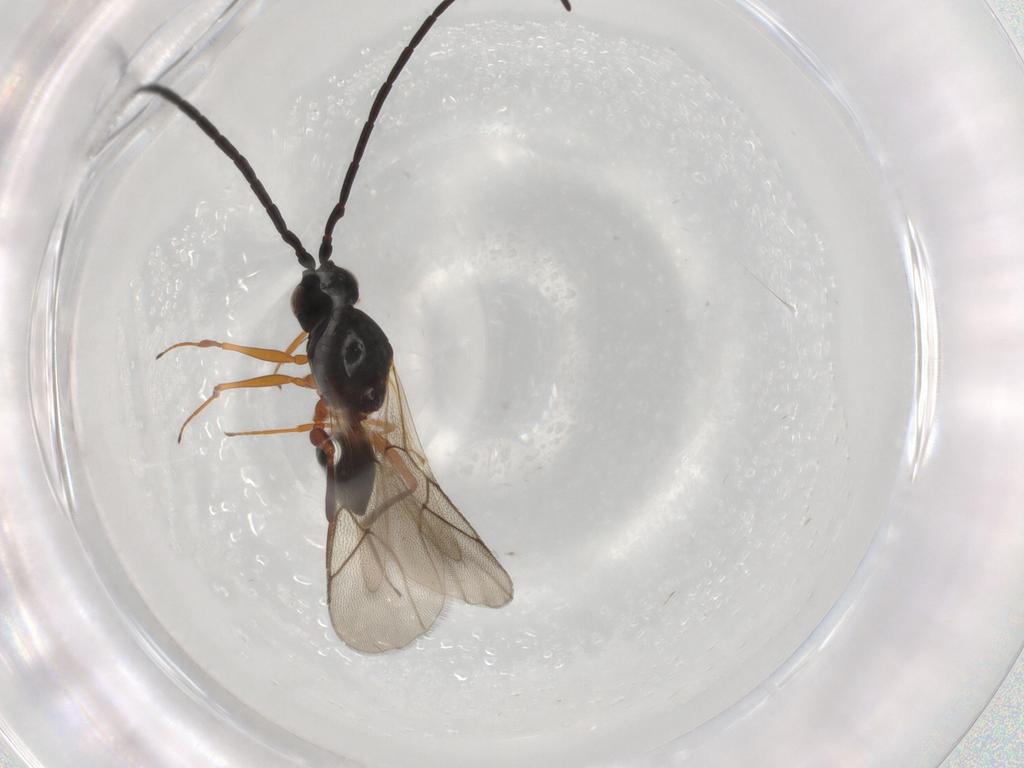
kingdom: Animalia
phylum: Arthropoda
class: Insecta
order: Hymenoptera
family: Figitidae
